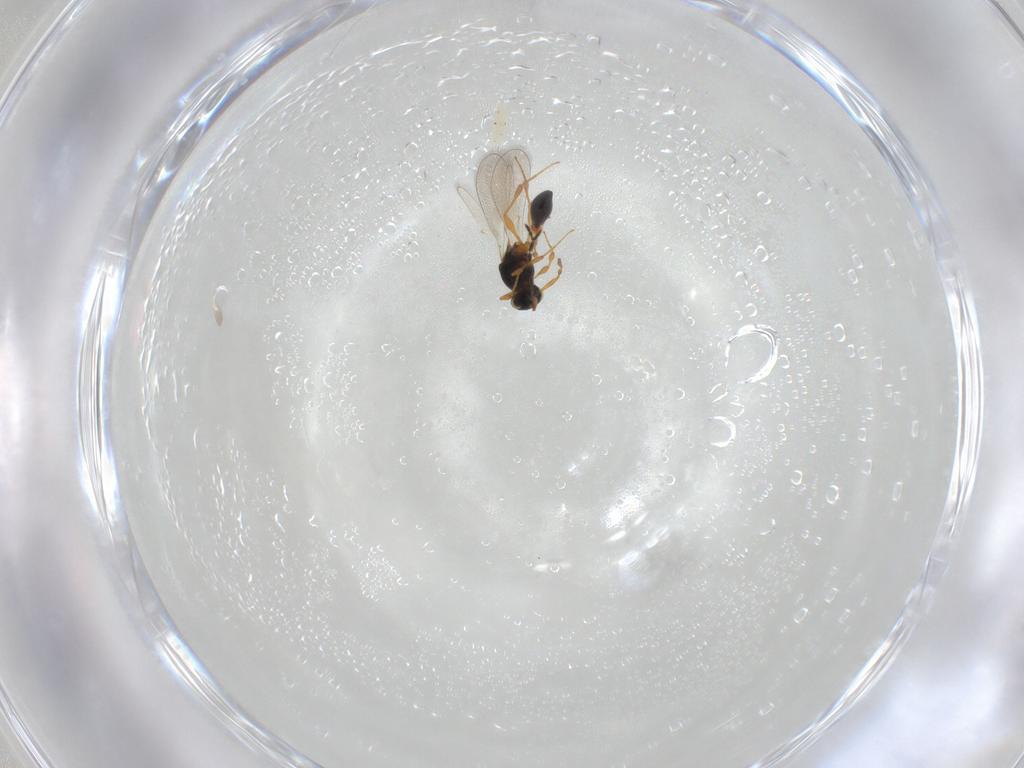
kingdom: Animalia
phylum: Arthropoda
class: Insecta
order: Hymenoptera
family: Platygastridae
